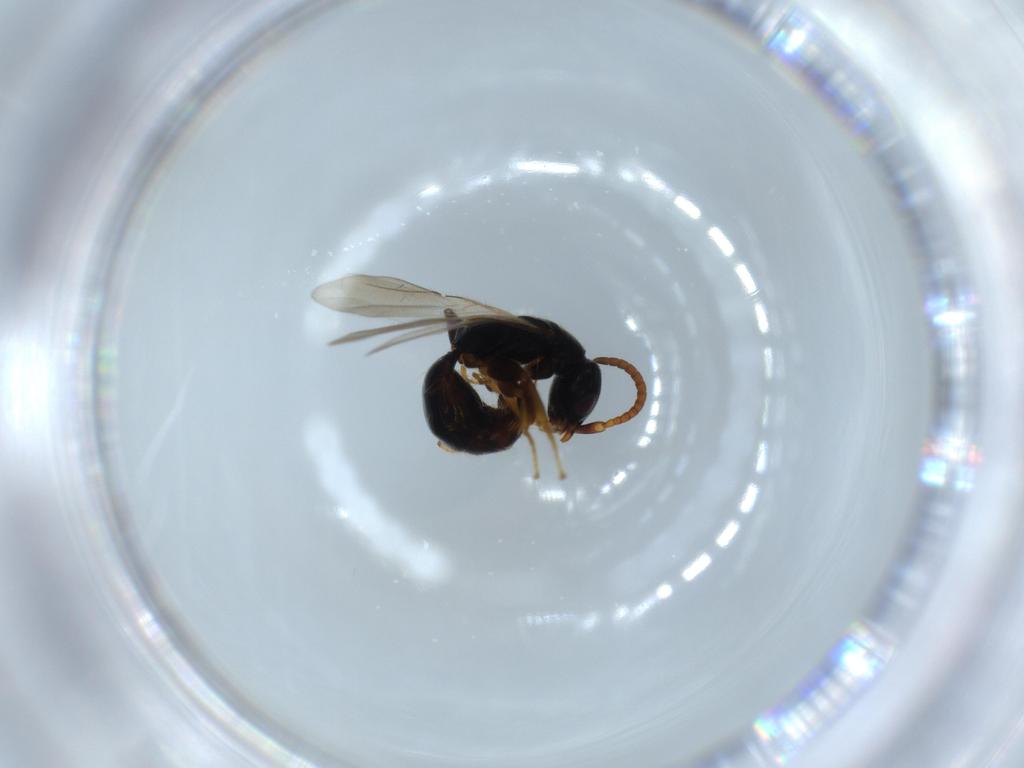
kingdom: Animalia
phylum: Arthropoda
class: Insecta
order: Hymenoptera
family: Bethylidae
